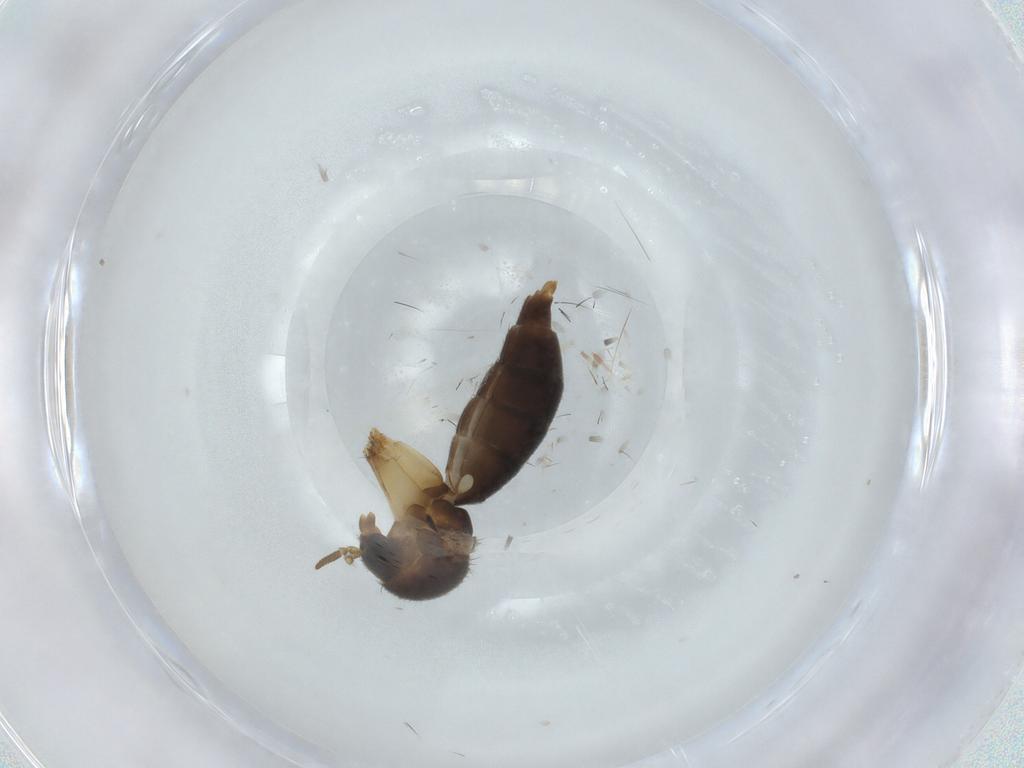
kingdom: Animalia
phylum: Arthropoda
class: Insecta
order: Diptera
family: Mycetophilidae
